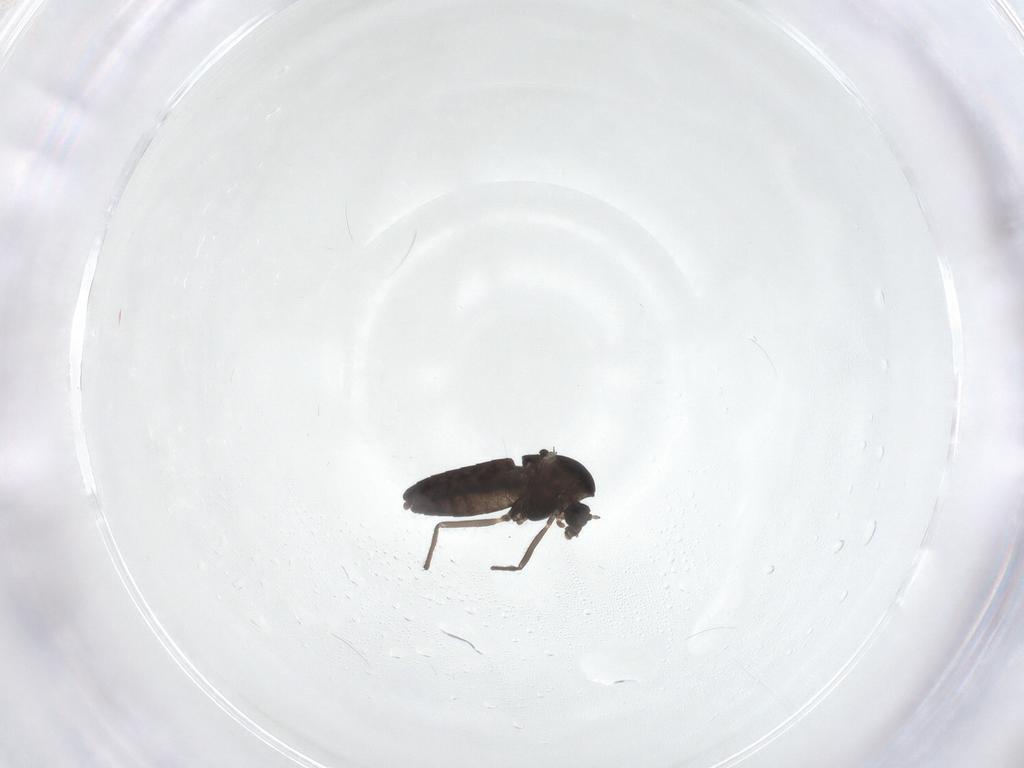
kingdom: Animalia
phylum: Arthropoda
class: Insecta
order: Diptera
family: Chironomidae
